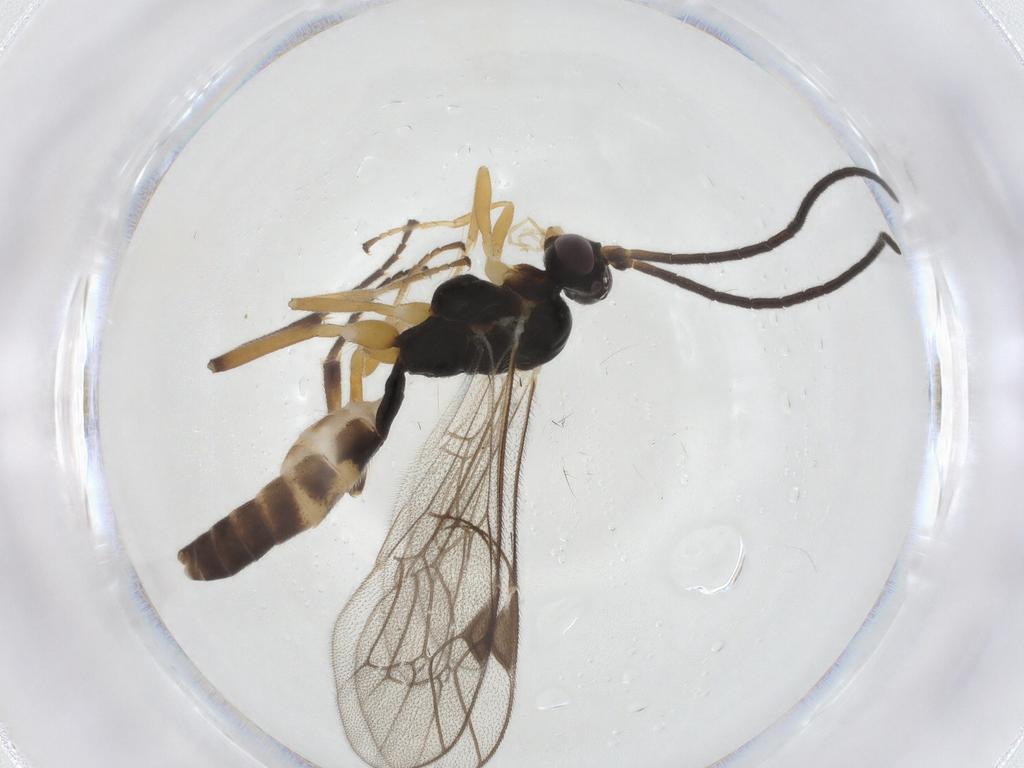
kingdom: Animalia
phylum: Arthropoda
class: Insecta
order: Hymenoptera
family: Ichneumonidae
